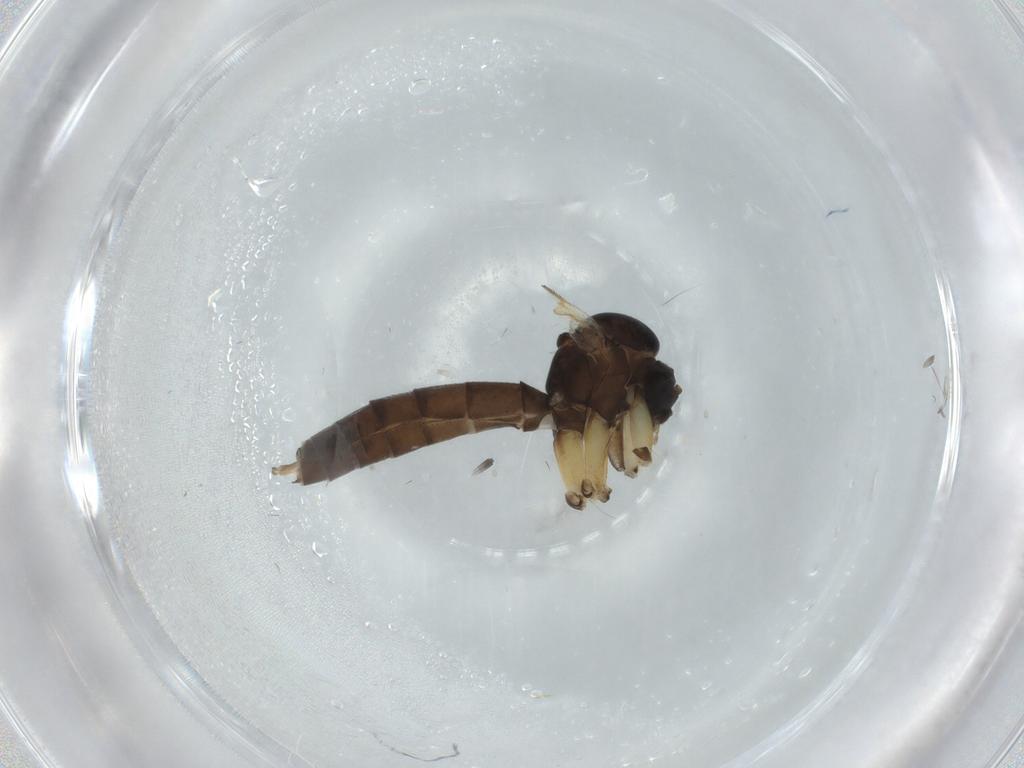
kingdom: Animalia
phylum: Arthropoda
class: Insecta
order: Diptera
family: Mycetophilidae
